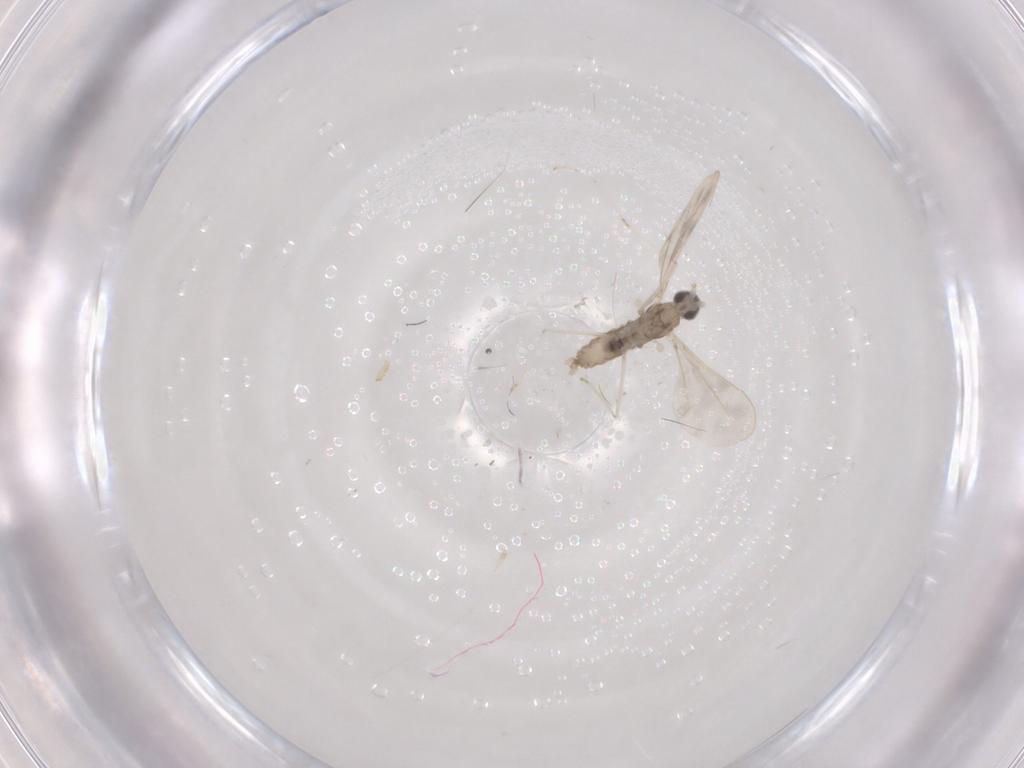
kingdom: Animalia
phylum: Arthropoda
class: Insecta
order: Diptera
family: Cecidomyiidae
